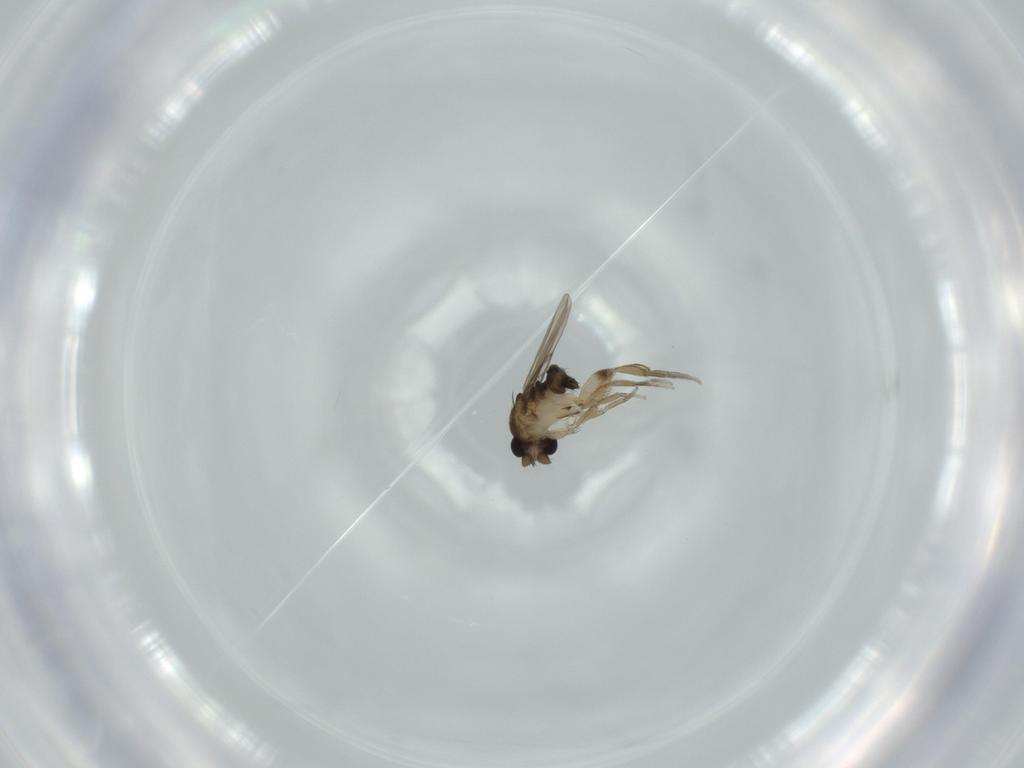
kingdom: Animalia
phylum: Arthropoda
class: Insecta
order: Diptera
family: Phoridae
